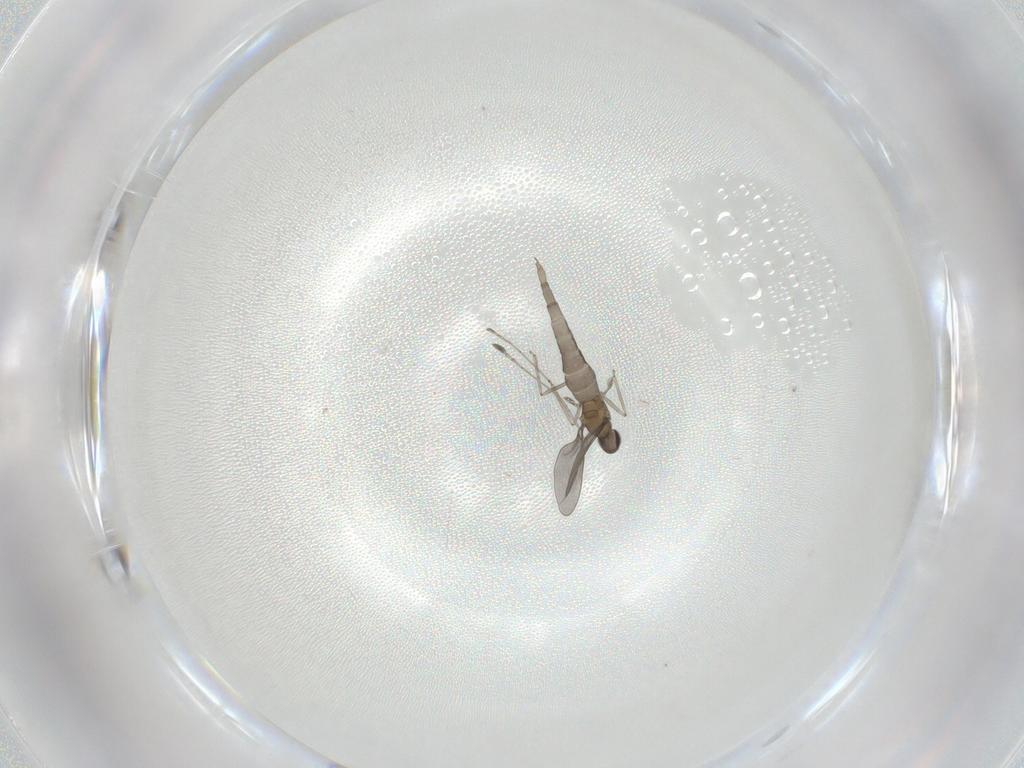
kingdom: Animalia
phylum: Arthropoda
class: Insecta
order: Diptera
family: Cecidomyiidae
